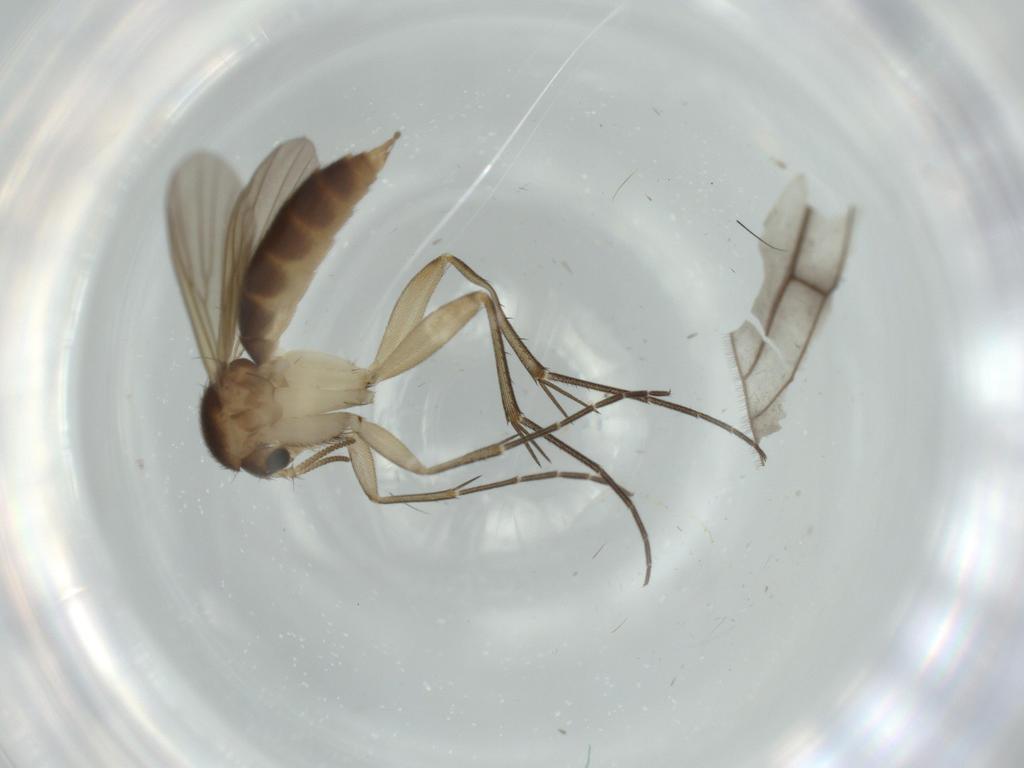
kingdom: Animalia
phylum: Arthropoda
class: Insecta
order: Diptera
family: Mycetophilidae
